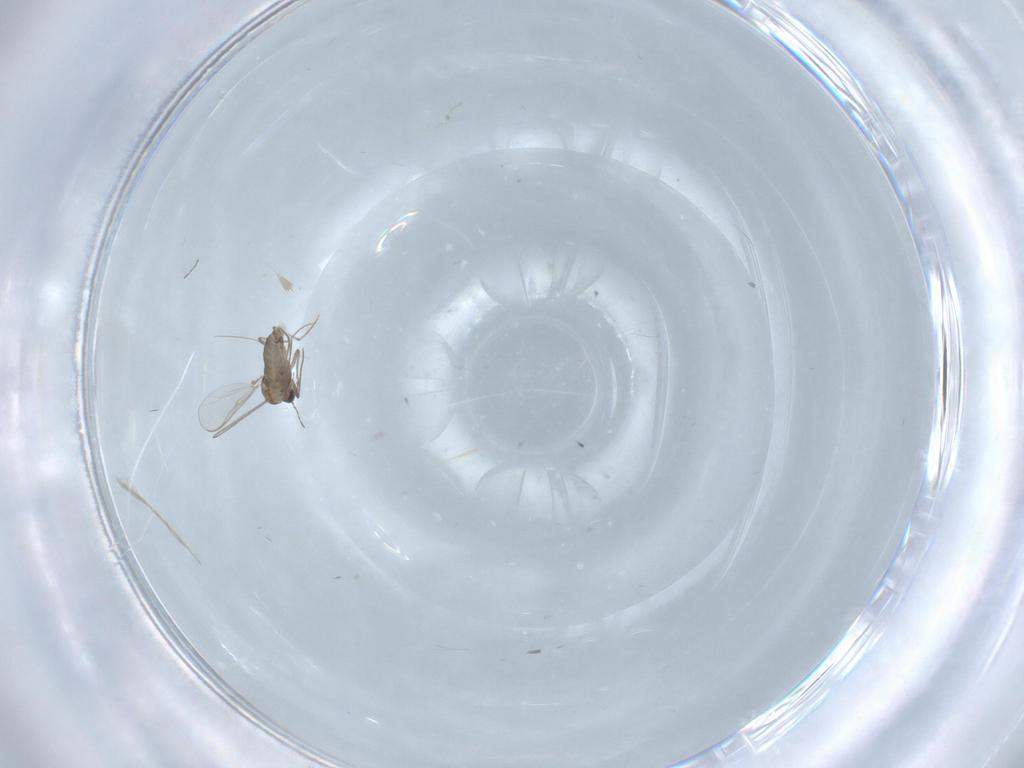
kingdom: Animalia
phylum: Arthropoda
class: Insecta
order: Diptera
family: Chironomidae
